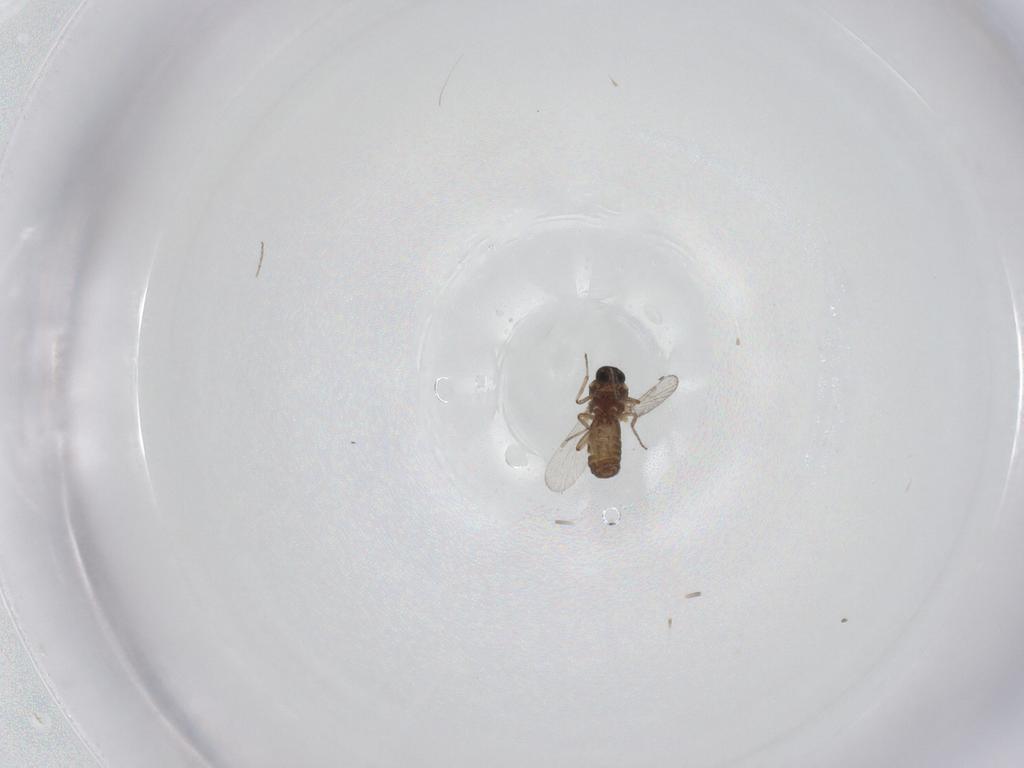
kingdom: Animalia
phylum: Arthropoda
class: Insecta
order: Diptera
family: Ceratopogonidae
